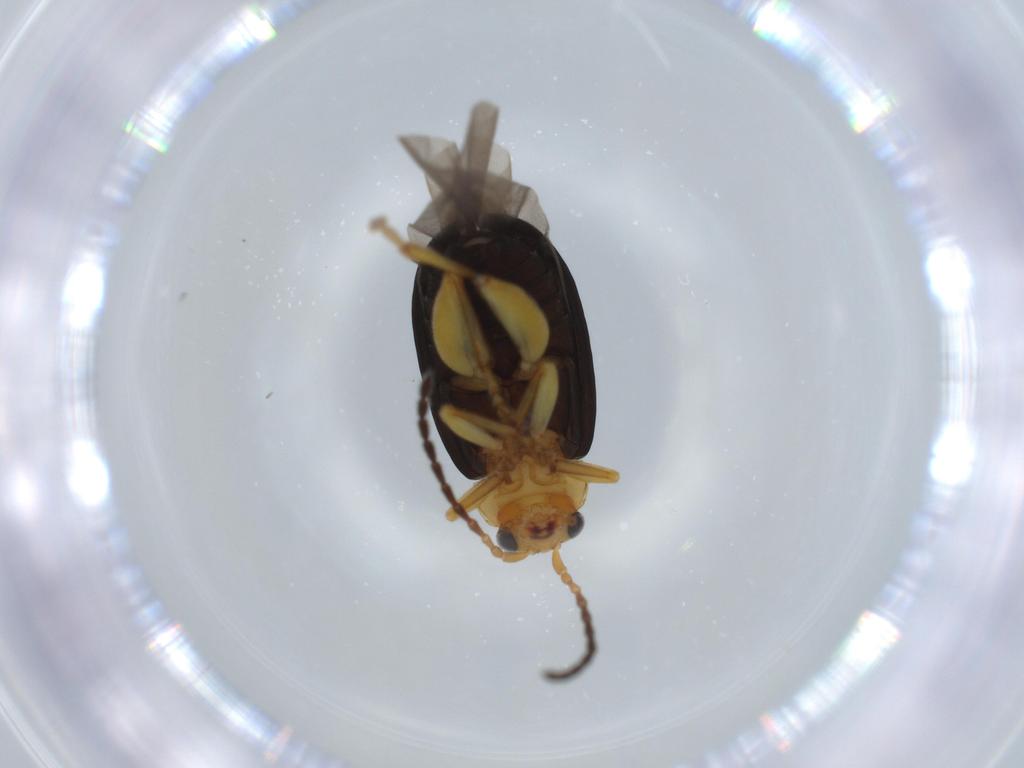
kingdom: Animalia
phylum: Arthropoda
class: Insecta
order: Coleoptera
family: Chrysomelidae
